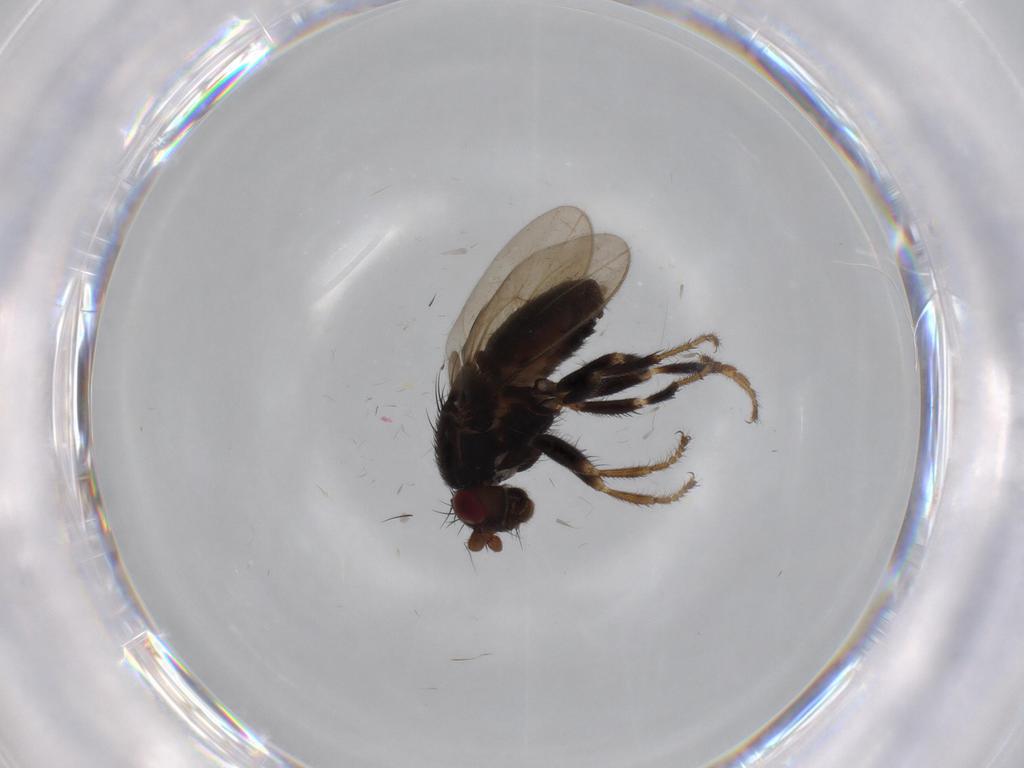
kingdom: Animalia
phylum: Arthropoda
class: Insecta
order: Diptera
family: Sphaeroceridae
